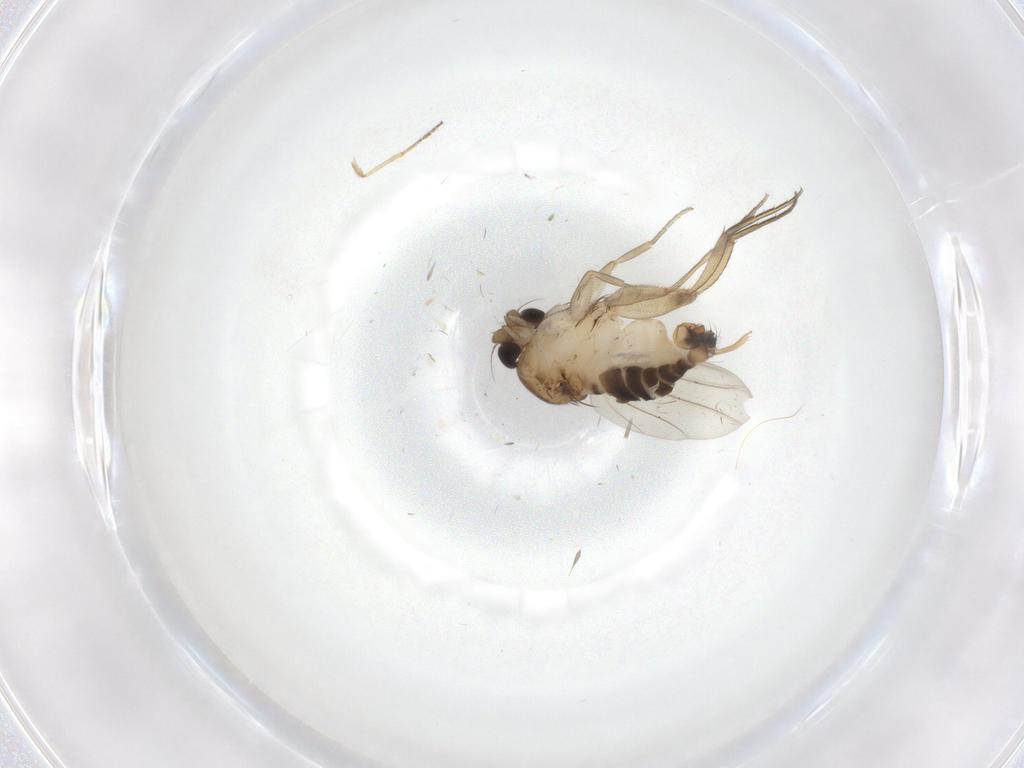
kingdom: Animalia
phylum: Arthropoda
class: Insecta
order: Diptera
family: Phoridae
